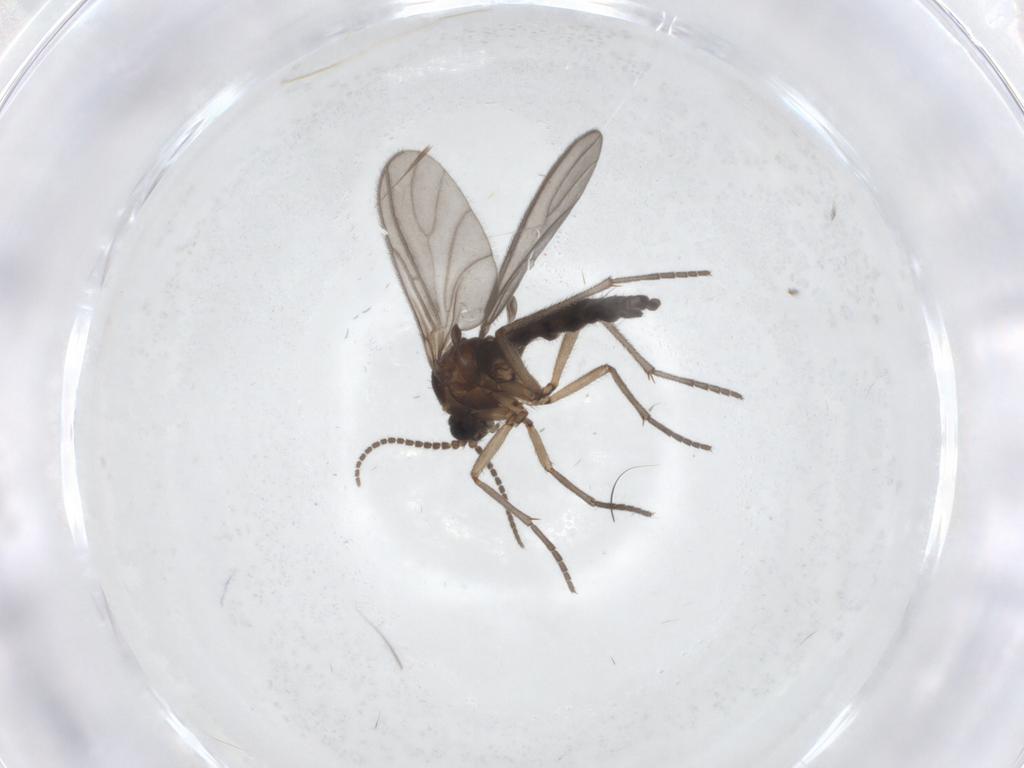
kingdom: Animalia
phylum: Arthropoda
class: Insecta
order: Diptera
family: Sciaridae
